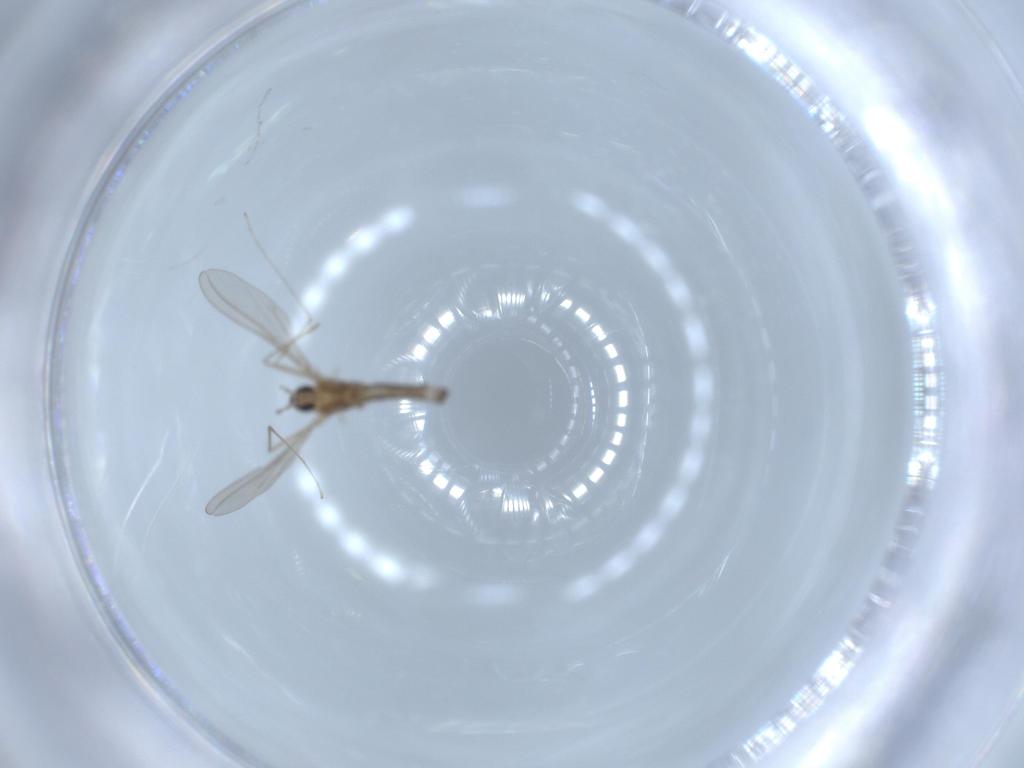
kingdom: Animalia
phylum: Arthropoda
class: Insecta
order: Diptera
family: Cecidomyiidae
